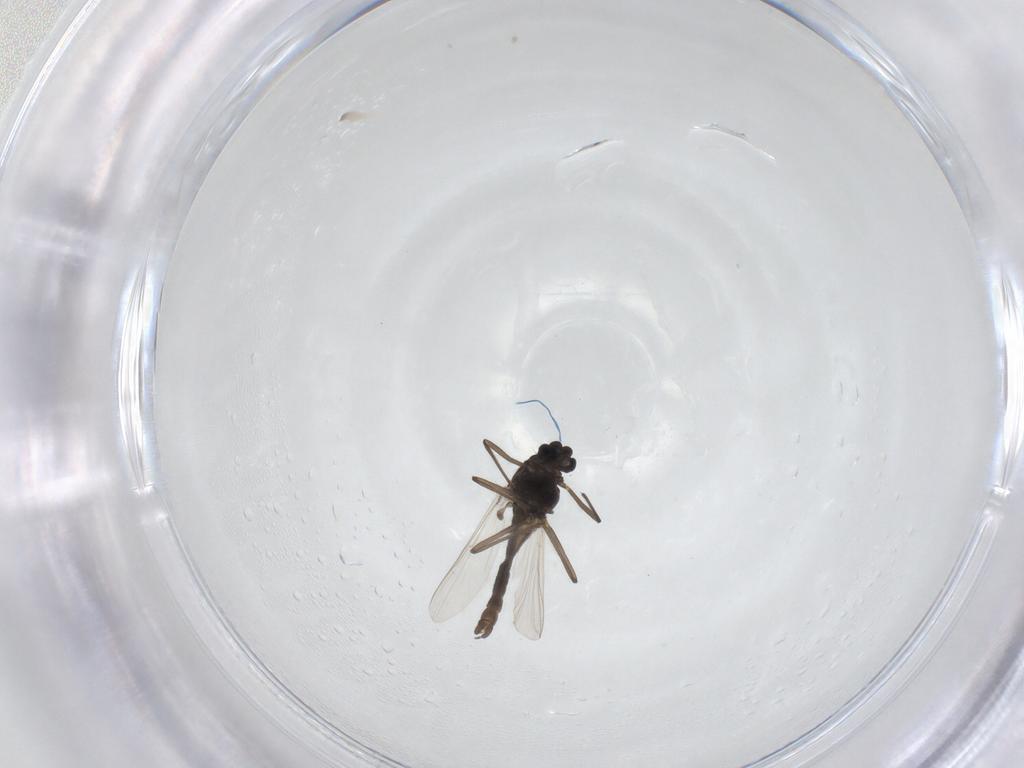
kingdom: Animalia
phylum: Arthropoda
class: Insecta
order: Diptera
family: Chironomidae
